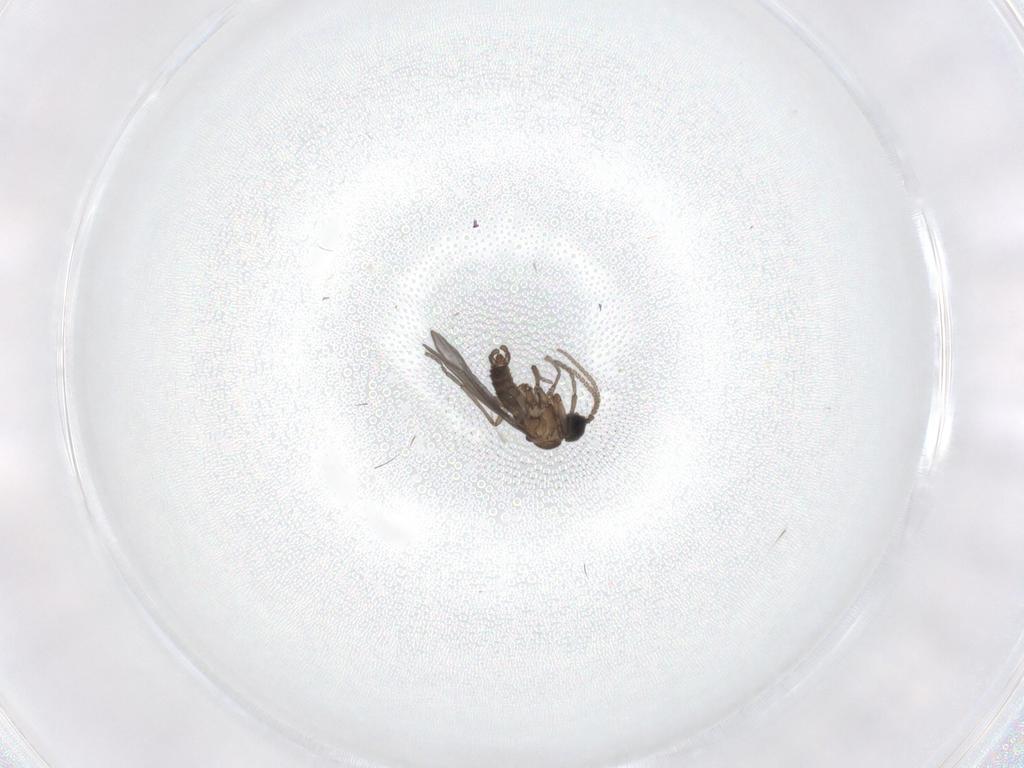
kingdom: Animalia
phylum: Arthropoda
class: Insecta
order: Diptera
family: Sciaridae
